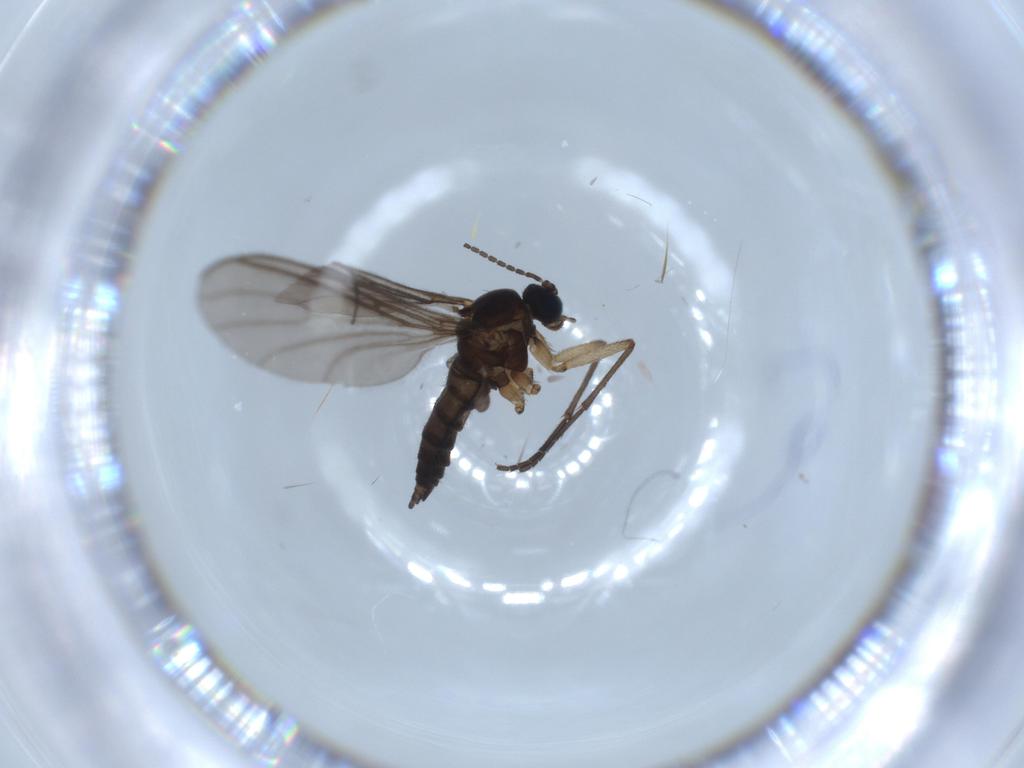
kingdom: Animalia
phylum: Arthropoda
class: Insecta
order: Diptera
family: Sciaridae
